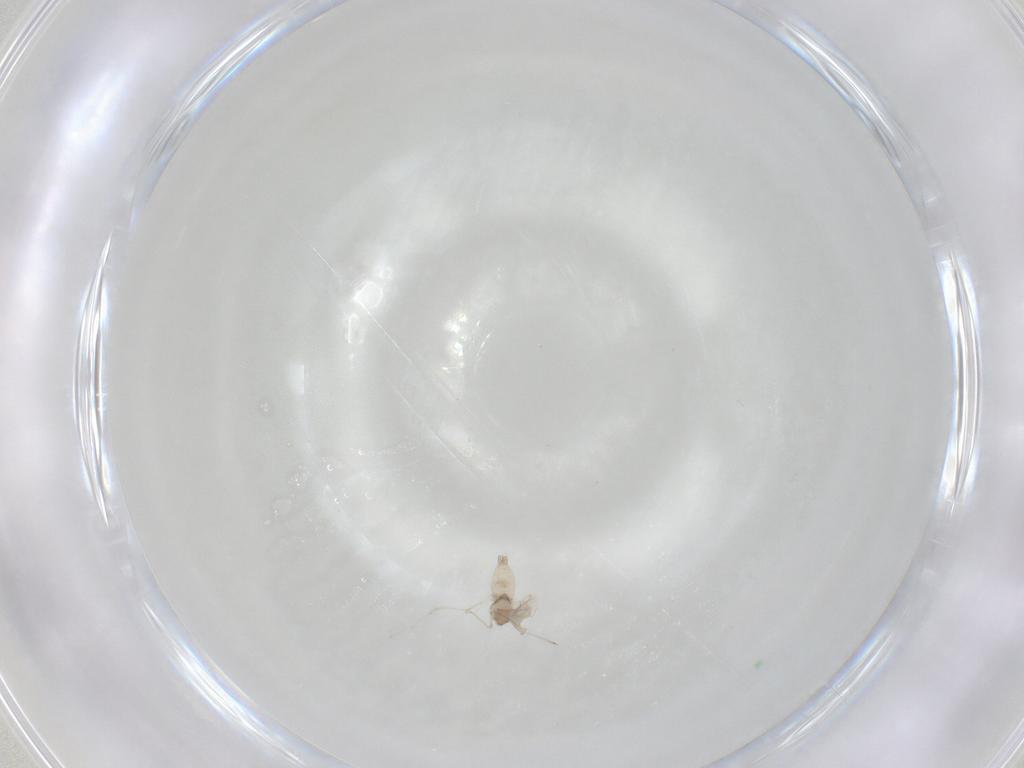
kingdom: Animalia
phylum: Arthropoda
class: Insecta
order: Diptera
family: Cecidomyiidae
